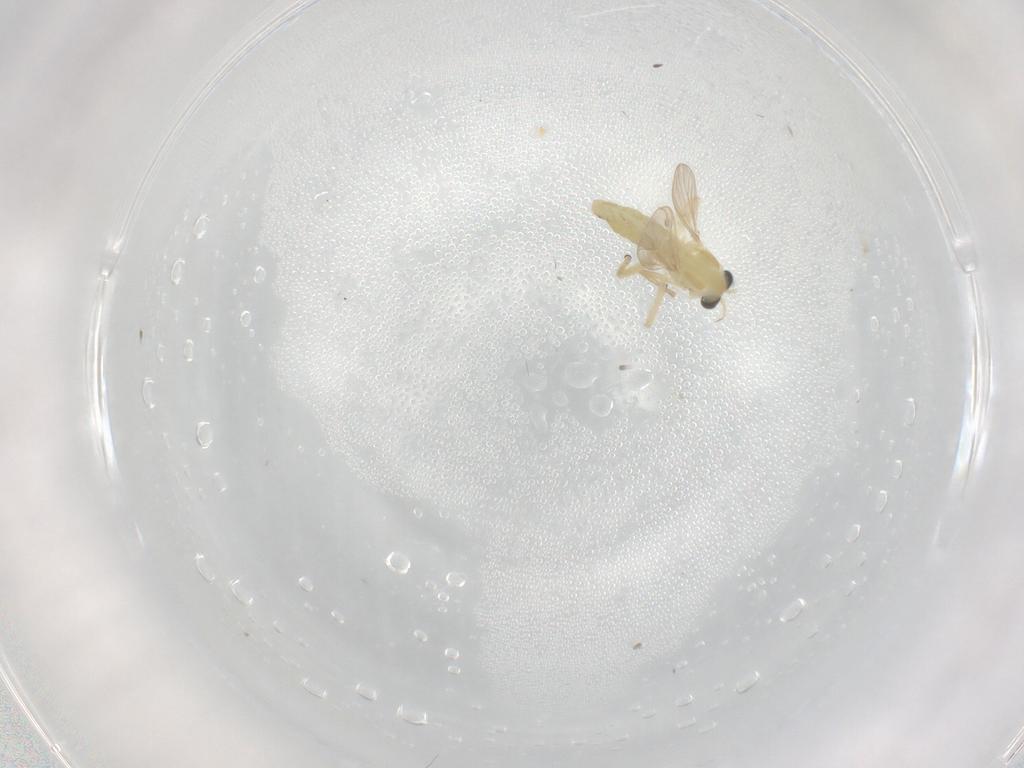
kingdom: Animalia
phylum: Arthropoda
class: Insecta
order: Diptera
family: Chironomidae
